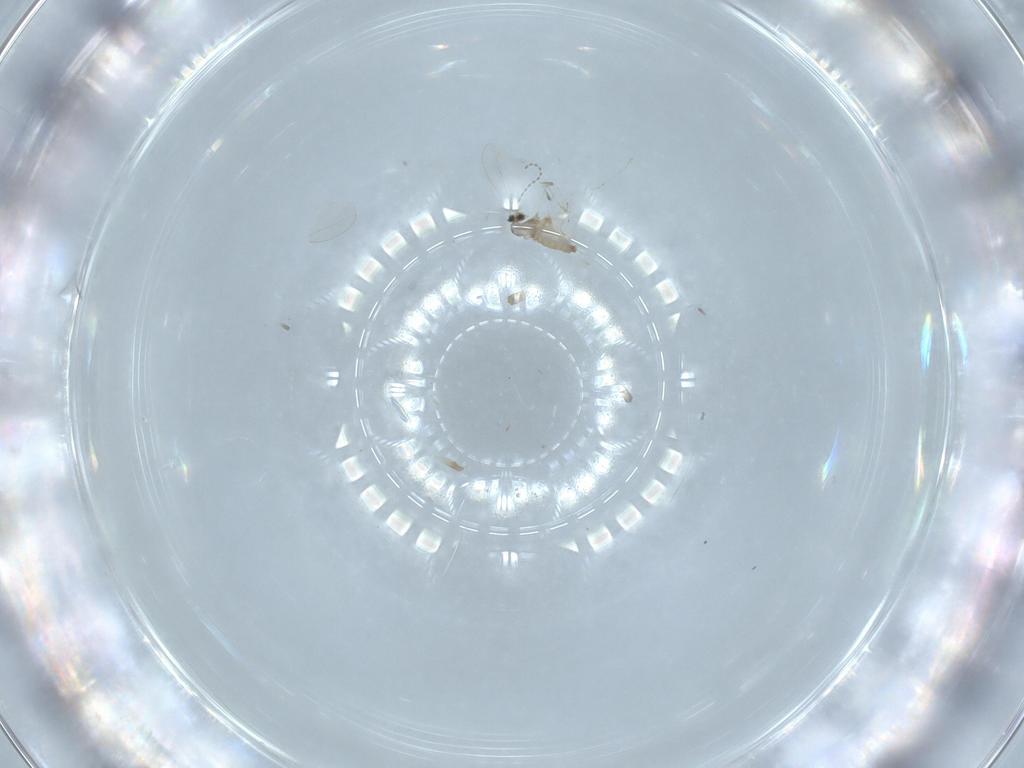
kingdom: Animalia
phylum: Arthropoda
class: Insecta
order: Diptera
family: Cecidomyiidae
